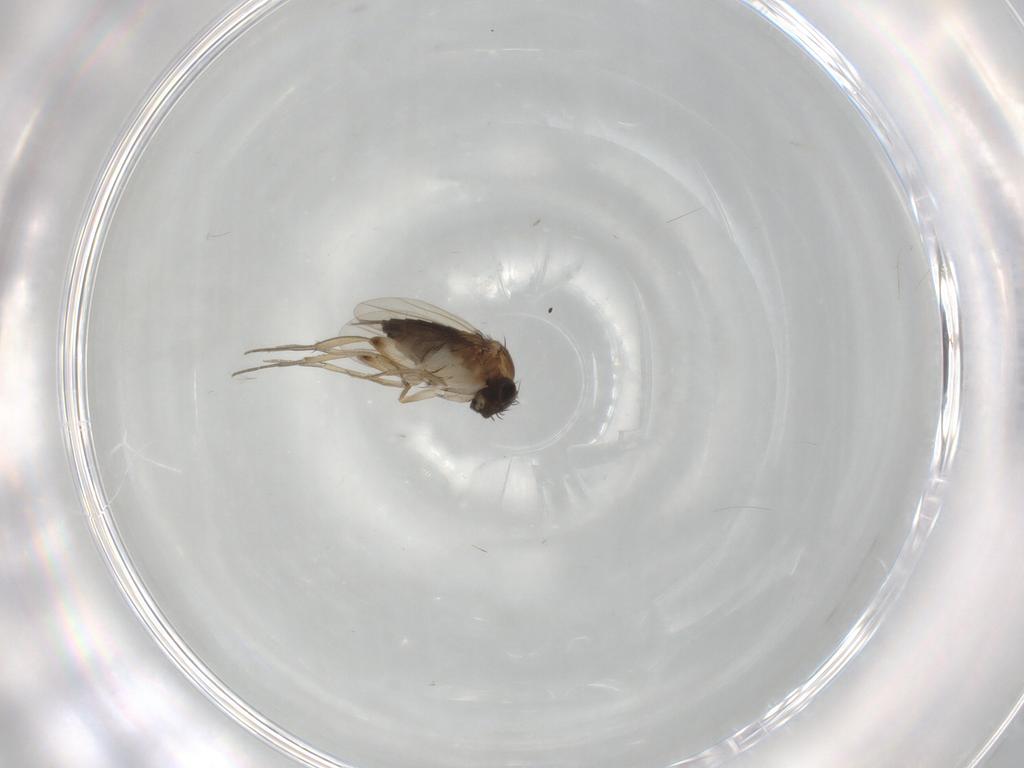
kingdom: Animalia
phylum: Arthropoda
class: Insecta
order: Diptera
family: Phoridae
